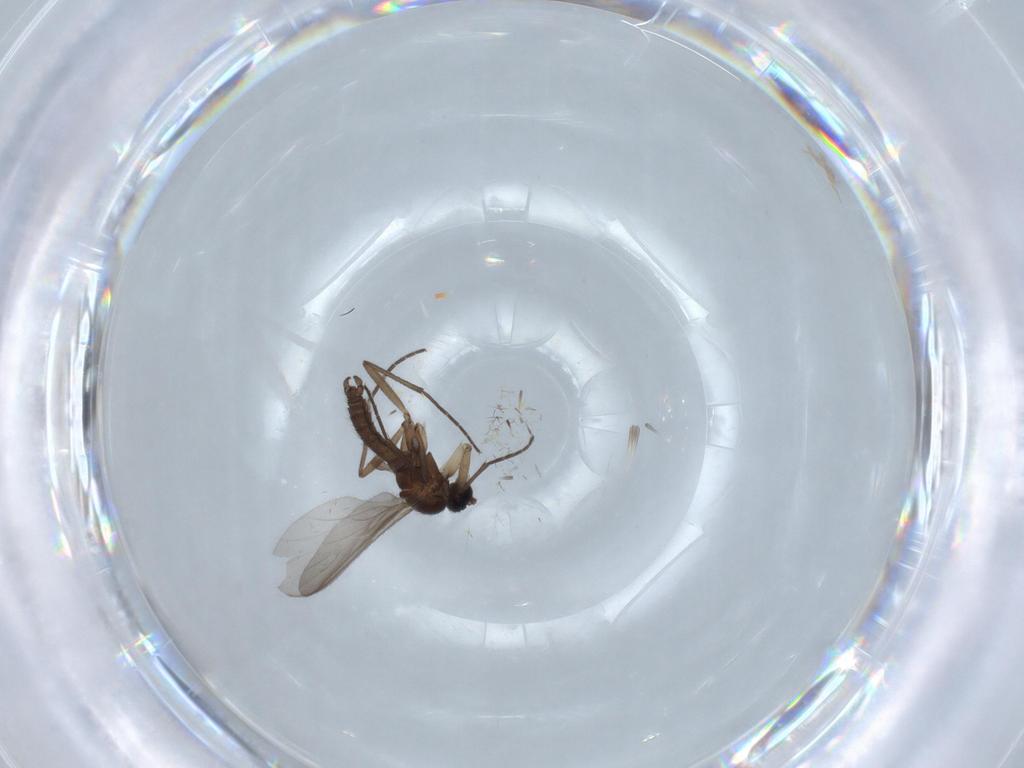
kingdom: Animalia
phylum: Arthropoda
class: Insecta
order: Diptera
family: Sciaridae
